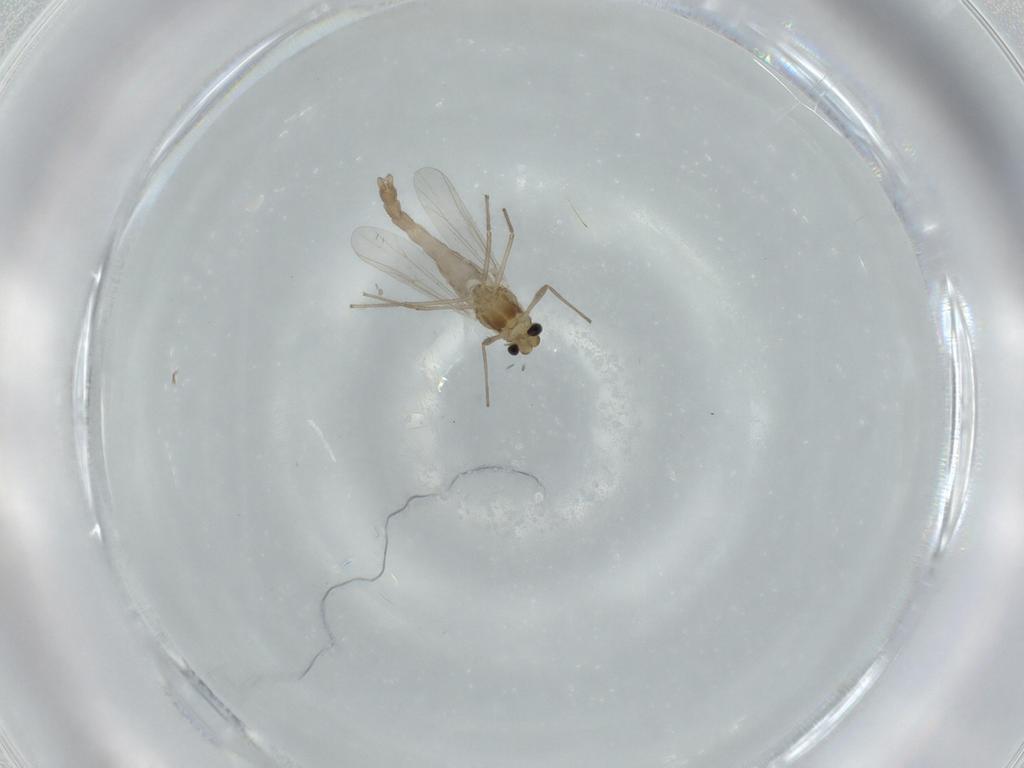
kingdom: Animalia
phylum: Arthropoda
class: Insecta
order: Diptera
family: Chironomidae
